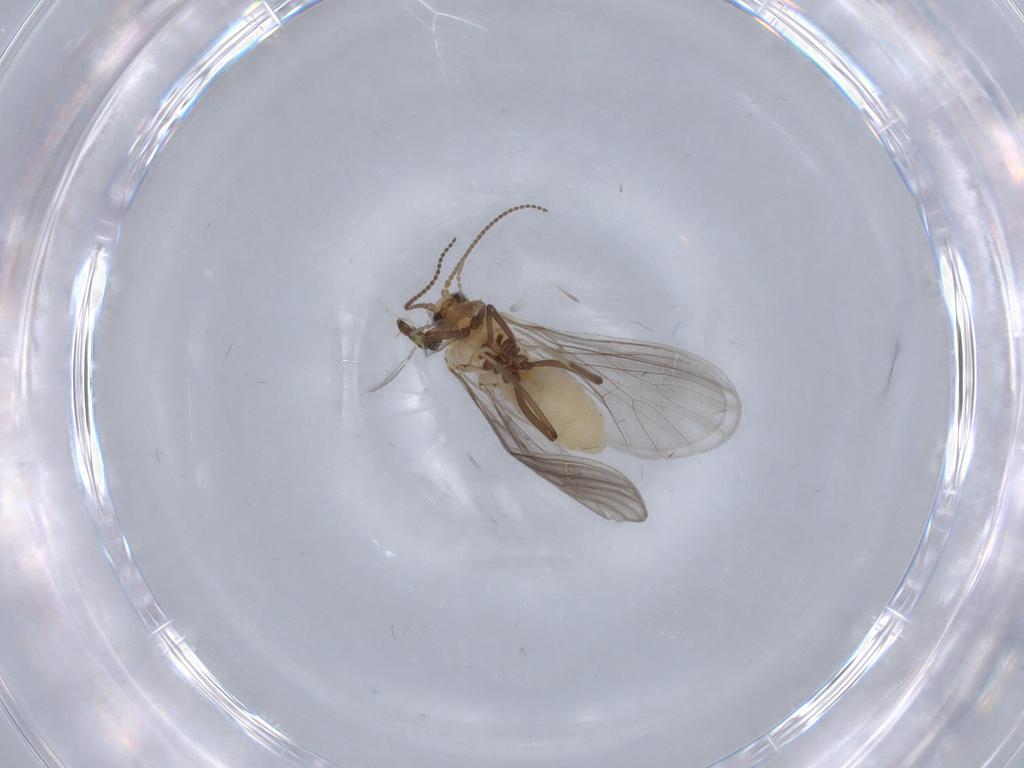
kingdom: Animalia
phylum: Arthropoda
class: Insecta
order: Neuroptera
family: Coniopterygidae
